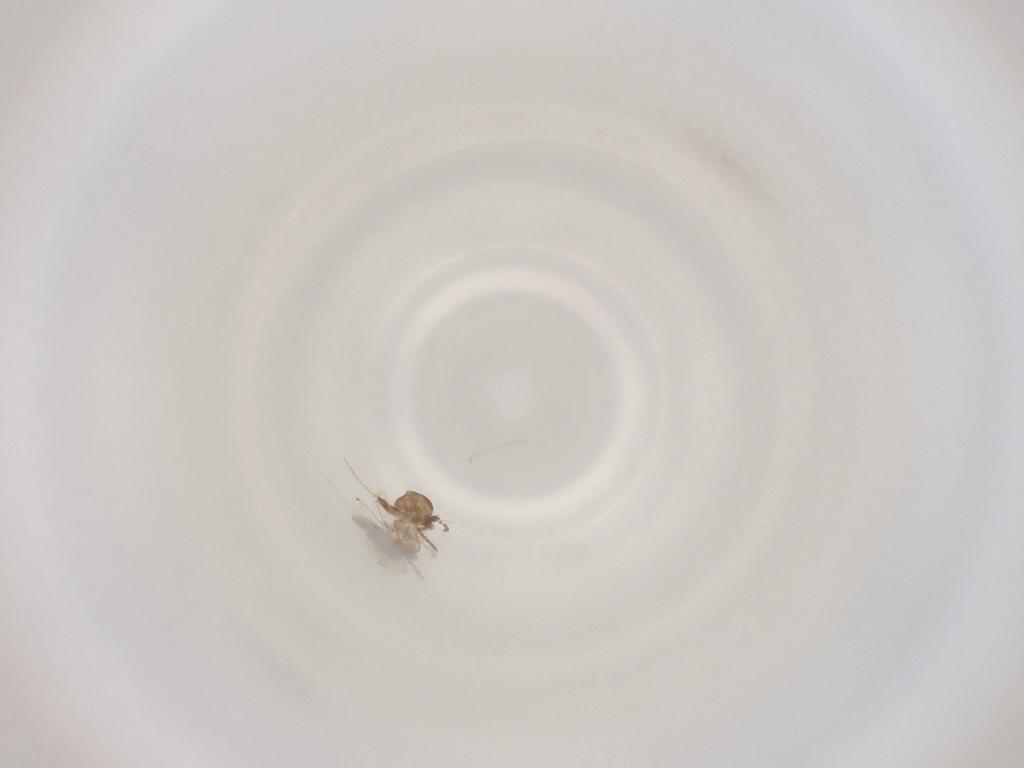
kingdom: Animalia
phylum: Arthropoda
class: Insecta
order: Diptera
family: Cecidomyiidae
